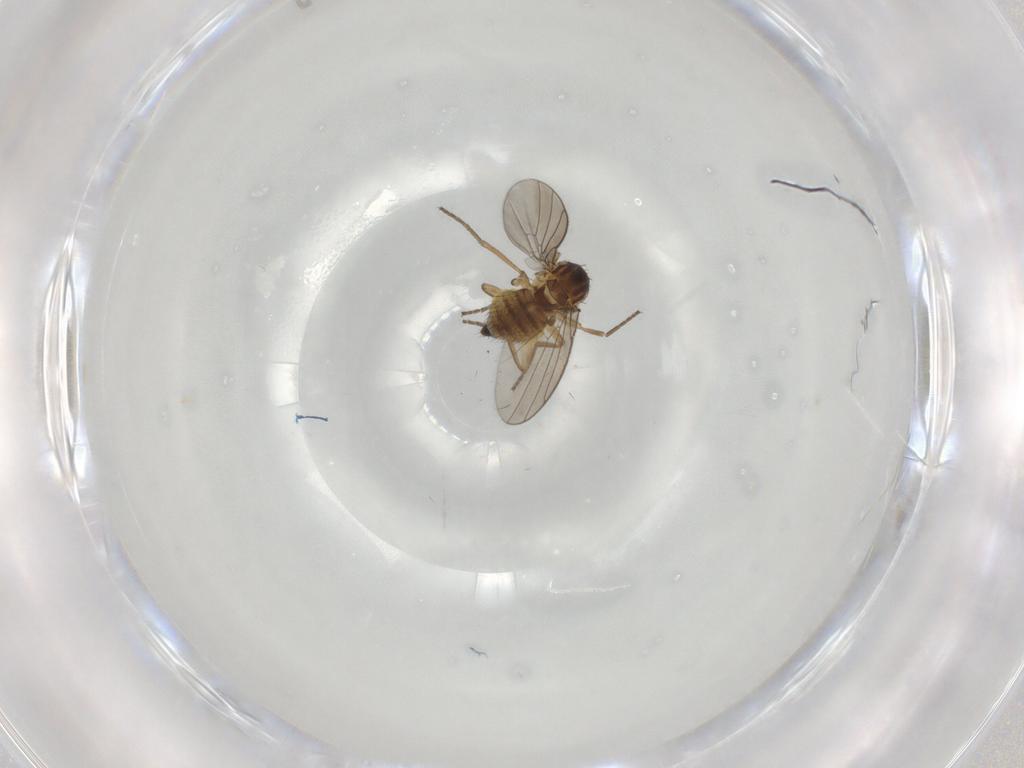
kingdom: Animalia
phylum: Arthropoda
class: Insecta
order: Diptera
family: Agromyzidae
